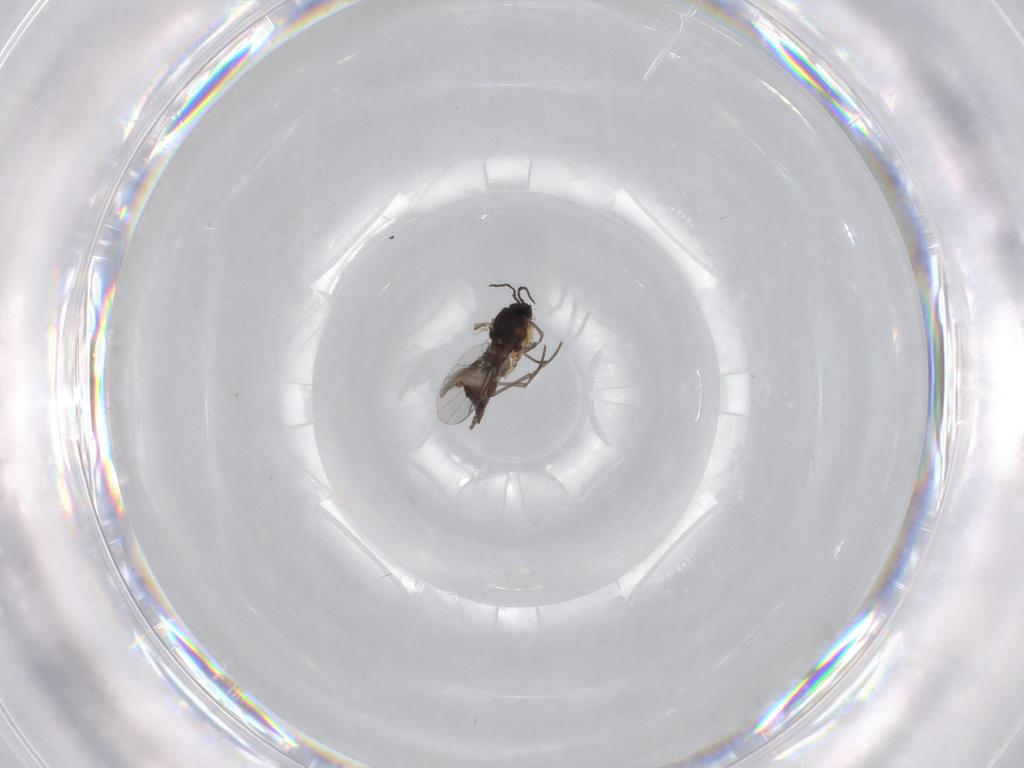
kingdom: Animalia
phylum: Arthropoda
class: Insecta
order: Diptera
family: Sciaridae
